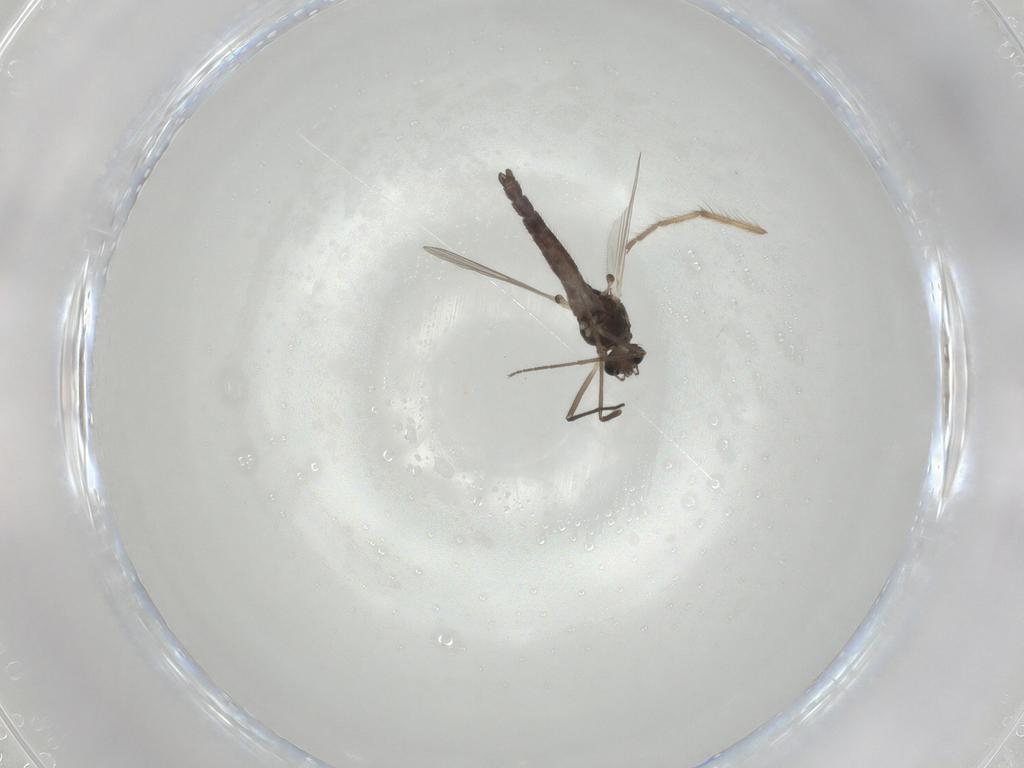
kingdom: Animalia
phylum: Arthropoda
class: Insecta
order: Diptera
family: Chironomidae
